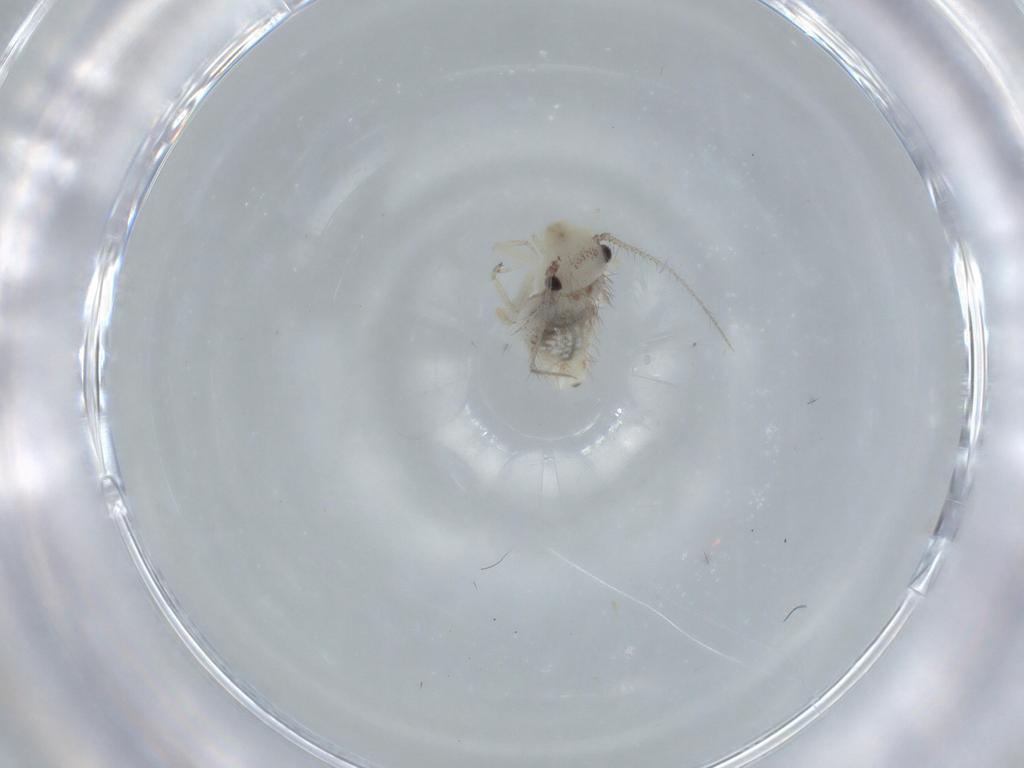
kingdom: Animalia
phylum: Arthropoda
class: Insecta
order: Psocodea
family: Pseudocaeciliidae
